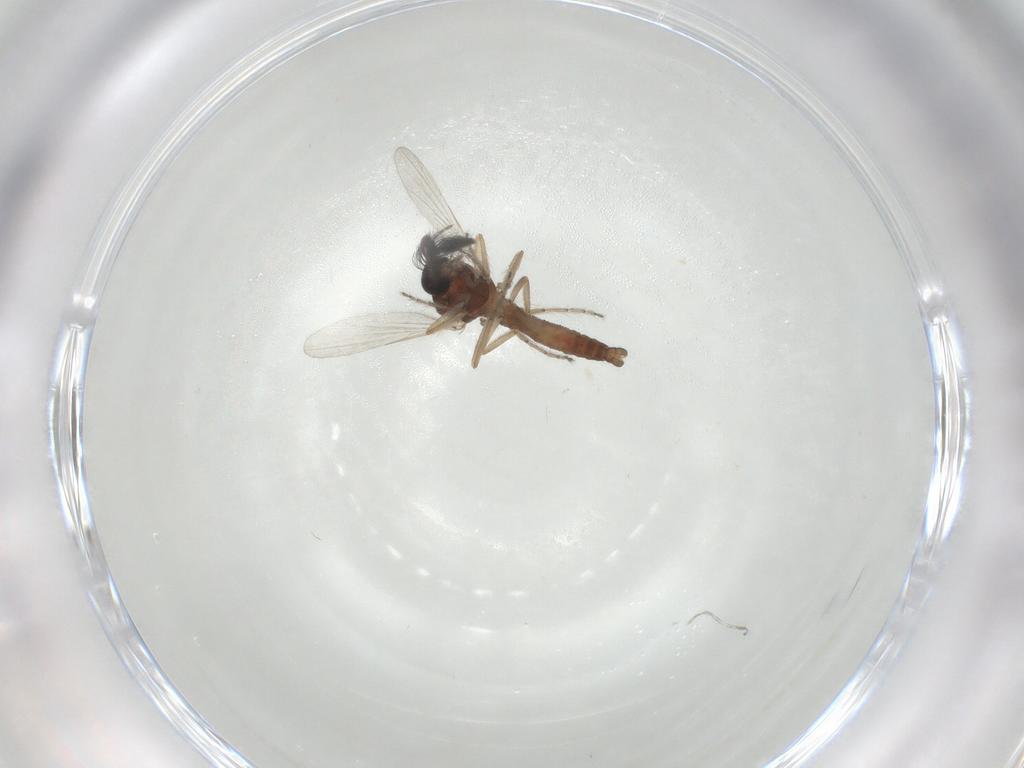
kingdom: Animalia
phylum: Arthropoda
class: Insecta
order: Diptera
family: Ceratopogonidae
